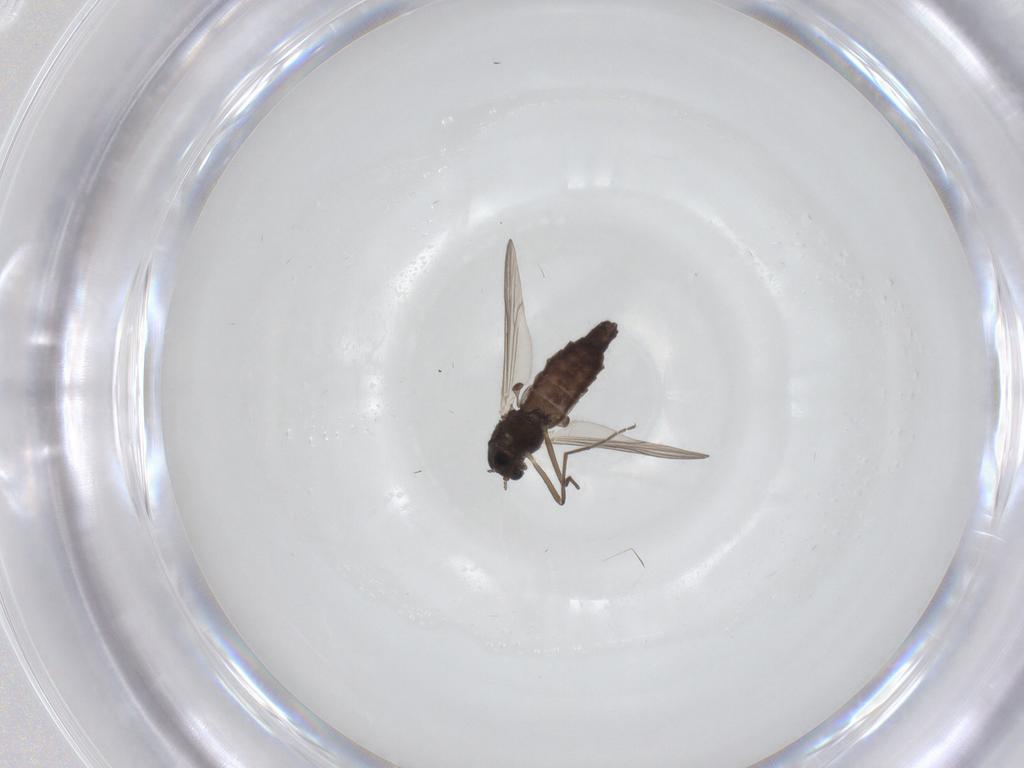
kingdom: Animalia
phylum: Arthropoda
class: Insecta
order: Diptera
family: Chironomidae
